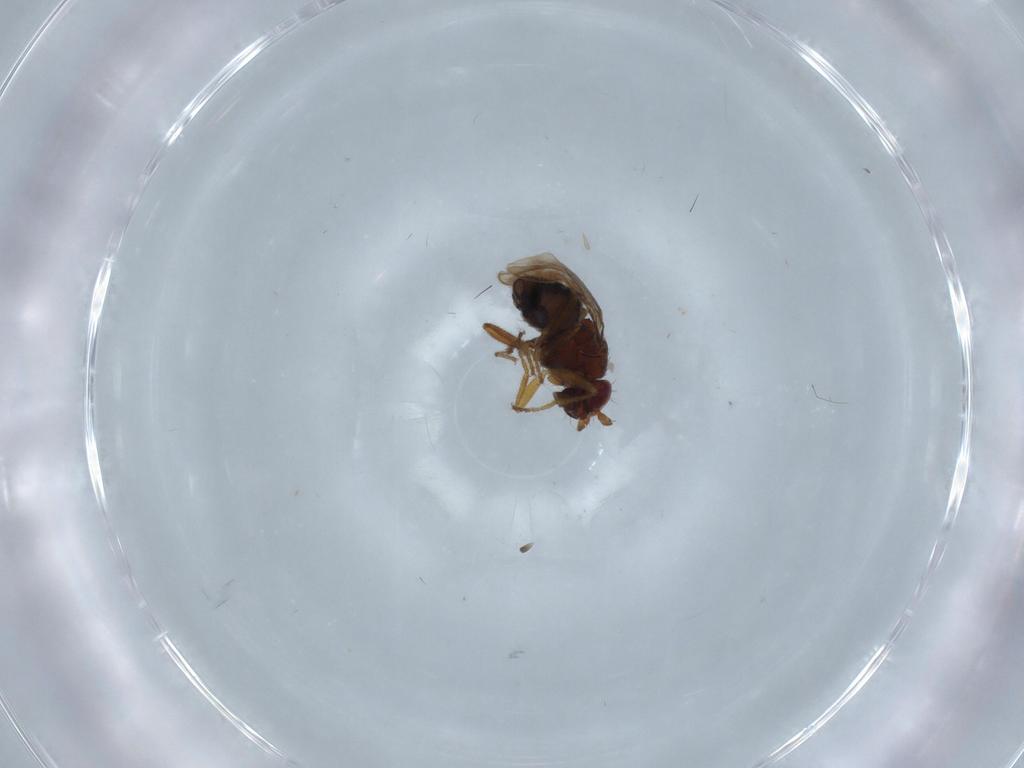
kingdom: Animalia
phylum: Arthropoda
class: Insecta
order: Diptera
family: Sphaeroceridae
